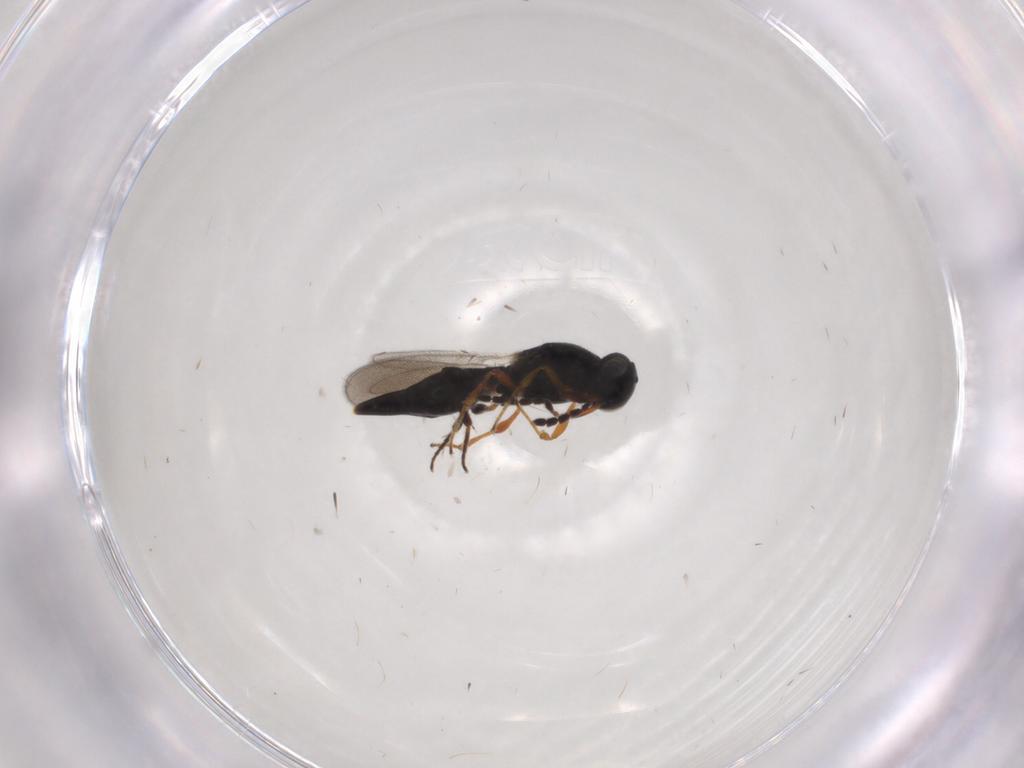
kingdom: Animalia
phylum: Arthropoda
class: Insecta
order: Hymenoptera
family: Platygastridae
